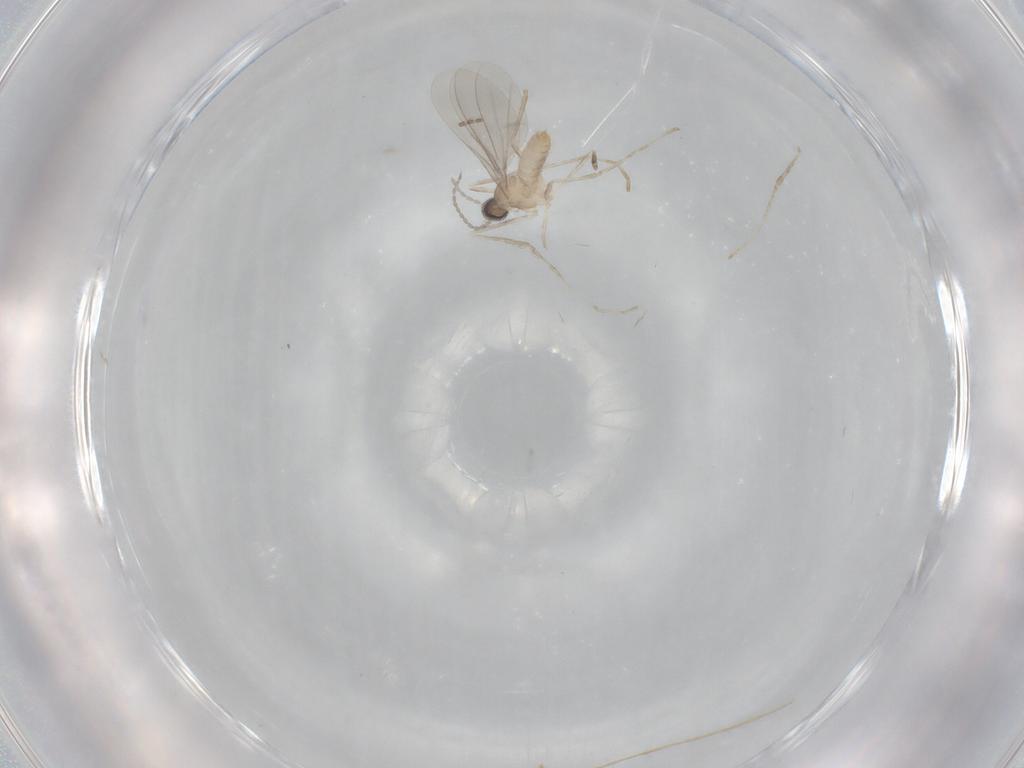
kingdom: Animalia
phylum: Arthropoda
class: Insecta
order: Diptera
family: Cecidomyiidae
